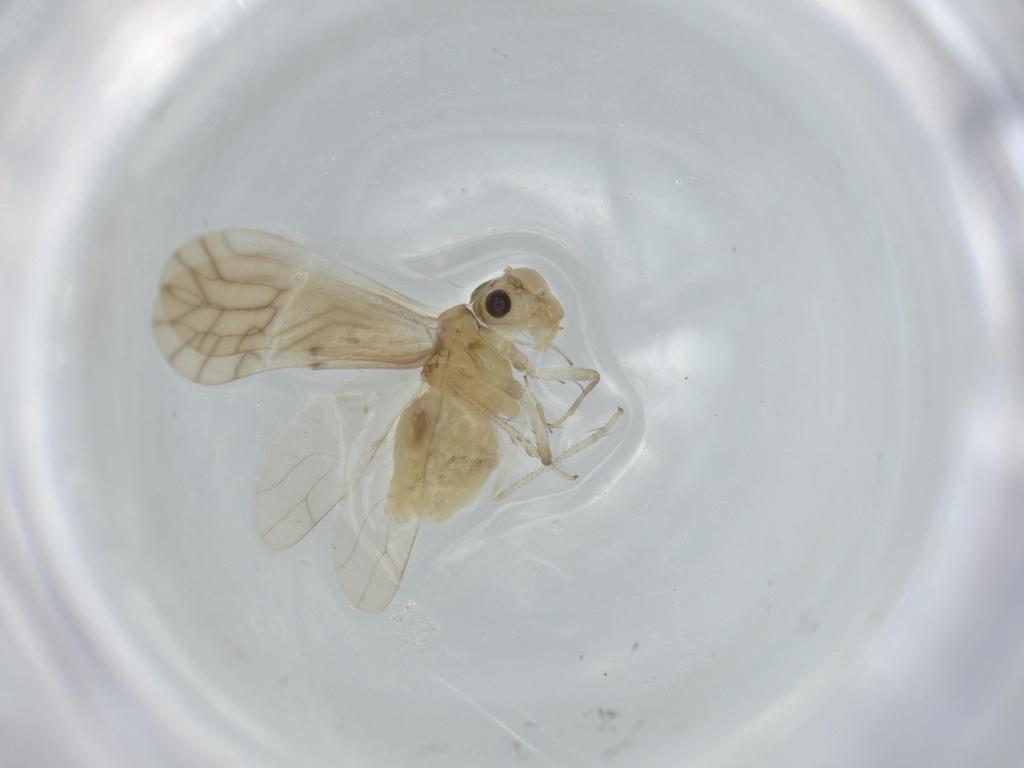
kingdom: Animalia
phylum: Arthropoda
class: Insecta
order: Psocodea
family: Caeciliusidae
